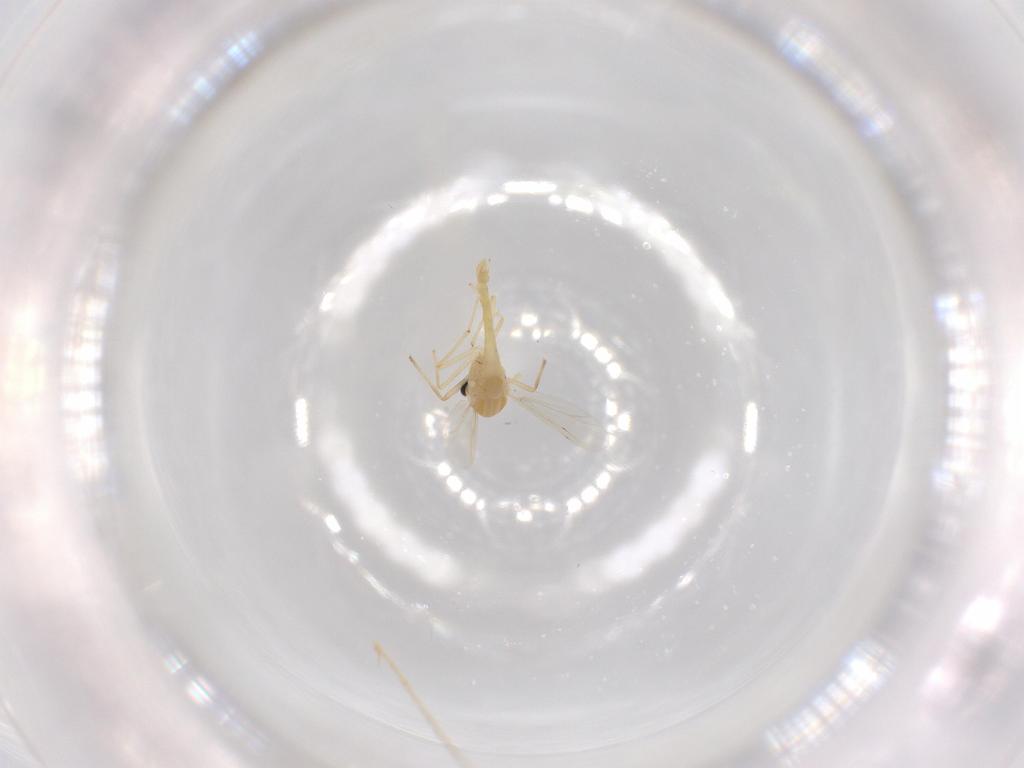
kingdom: Animalia
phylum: Arthropoda
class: Insecta
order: Diptera
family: Chironomidae
